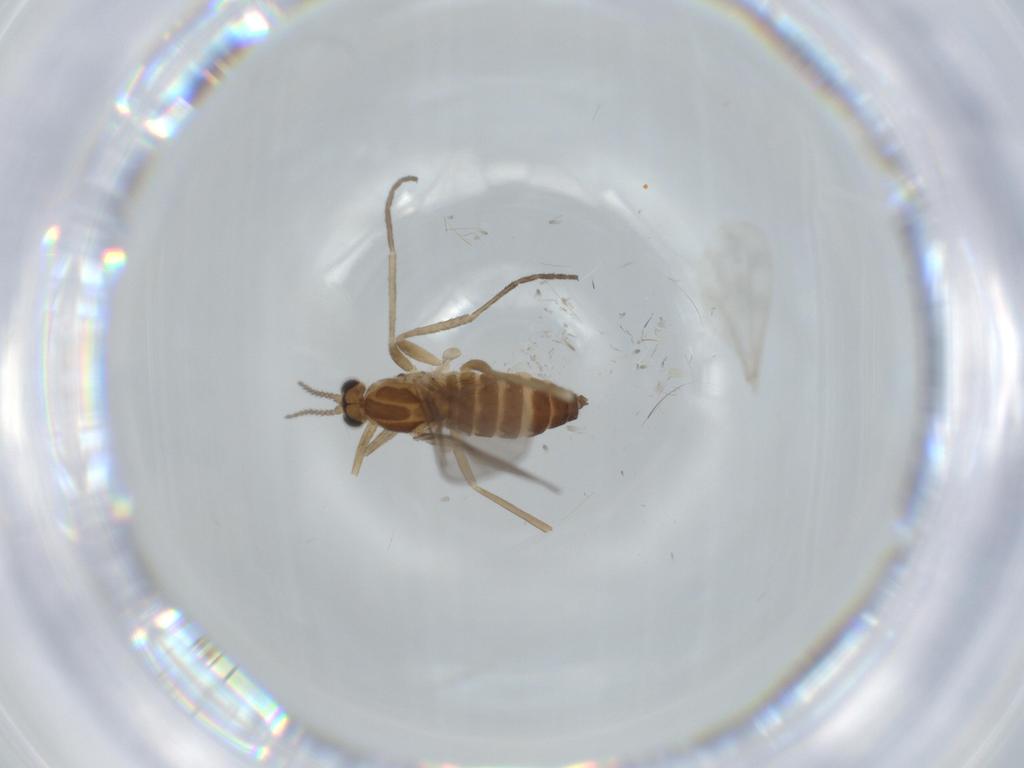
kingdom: Animalia
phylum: Arthropoda
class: Insecta
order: Diptera
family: Cecidomyiidae
